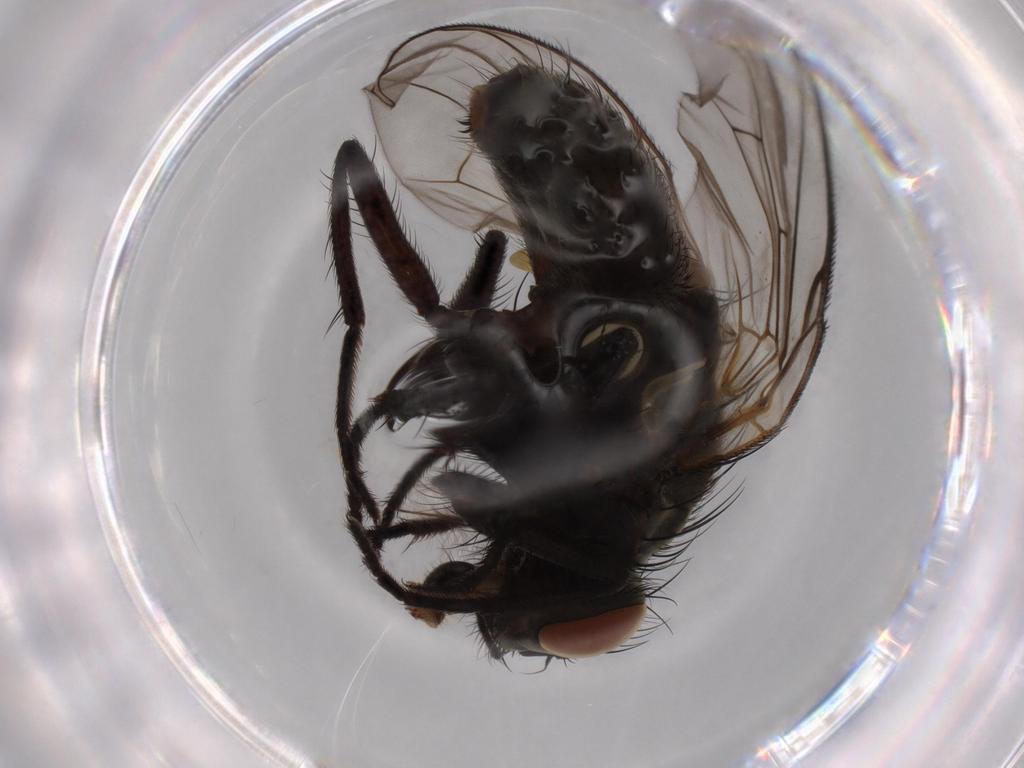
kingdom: Animalia
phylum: Arthropoda
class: Insecta
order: Diptera
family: Muscidae
